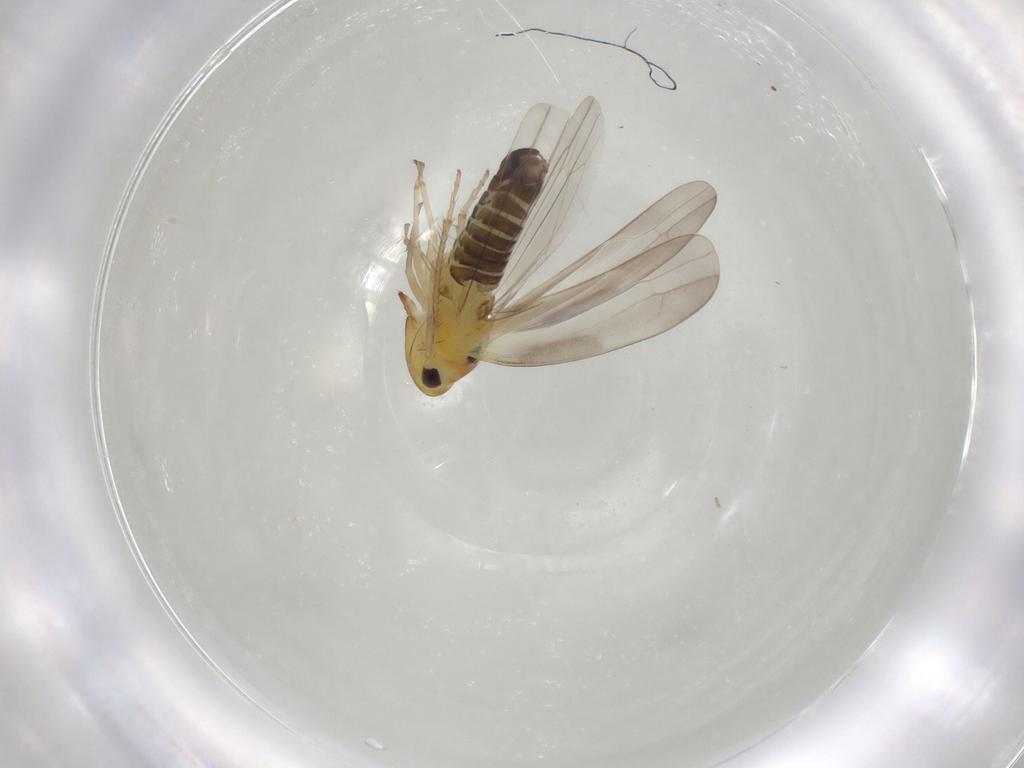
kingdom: Animalia
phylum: Arthropoda
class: Insecta
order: Hemiptera
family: Cicadellidae
